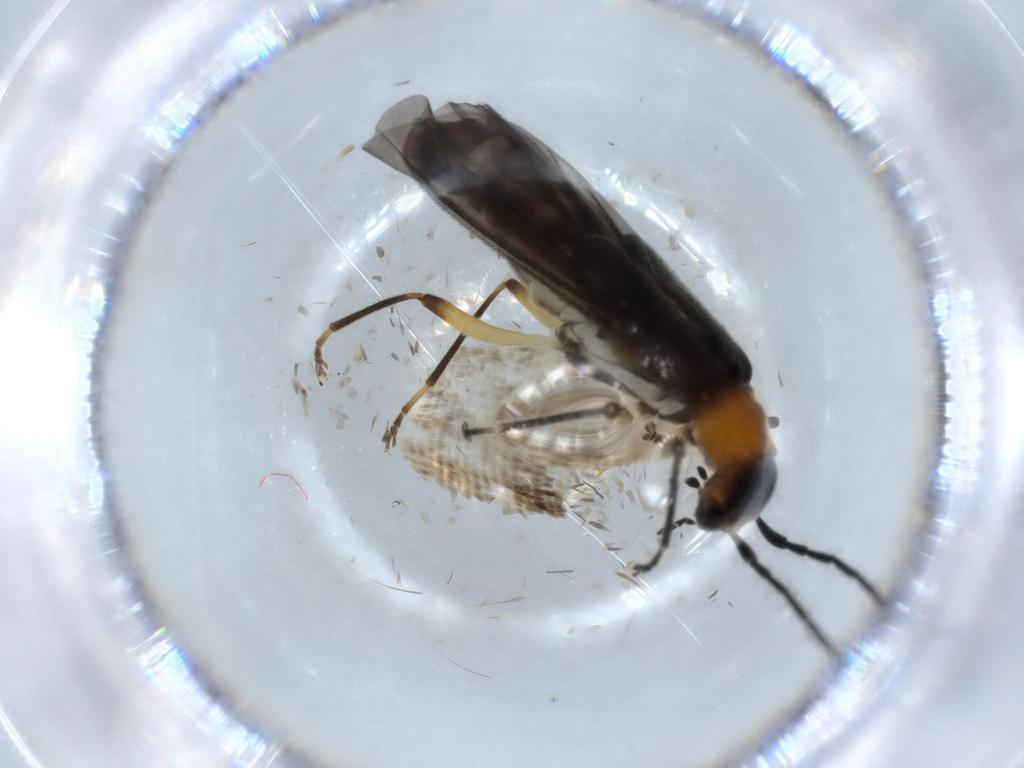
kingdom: Animalia
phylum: Arthropoda
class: Insecta
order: Coleoptera
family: Cantharidae
